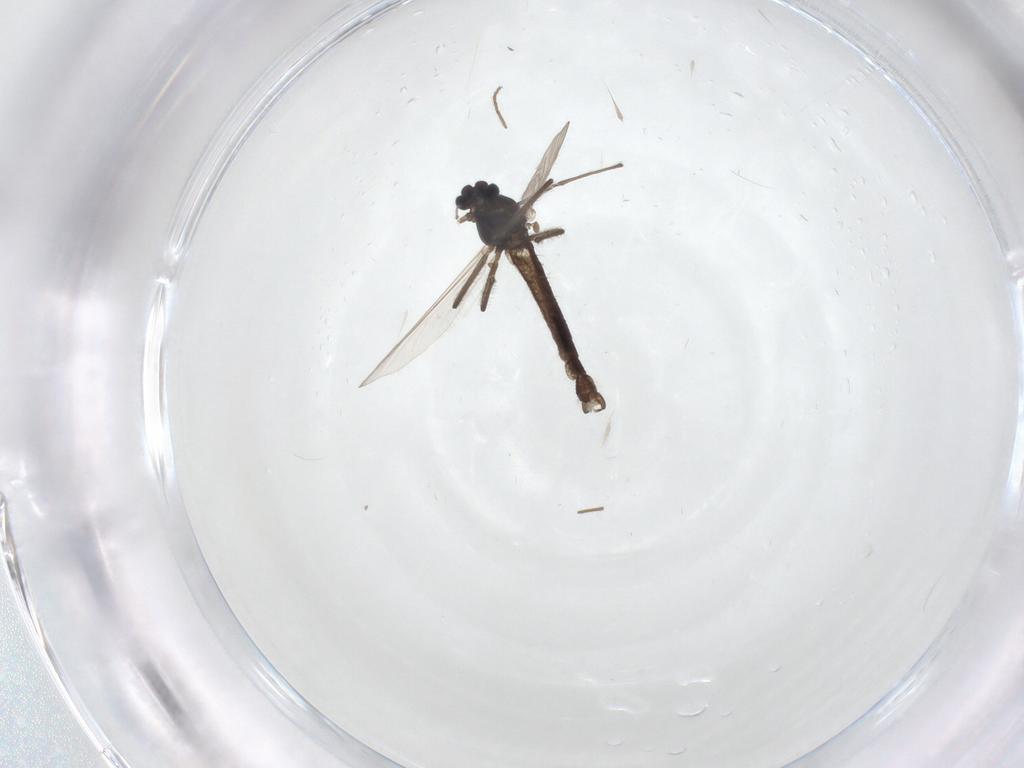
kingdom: Animalia
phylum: Arthropoda
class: Insecta
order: Diptera
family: Chironomidae
